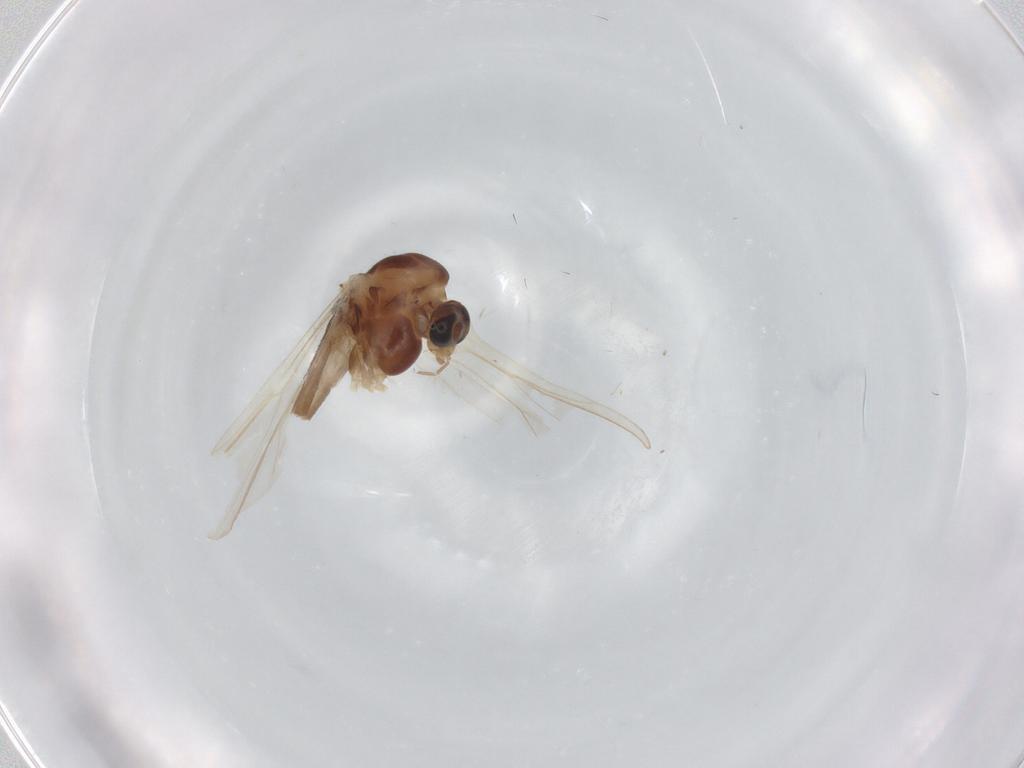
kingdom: Animalia
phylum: Arthropoda
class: Insecta
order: Diptera
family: Chironomidae
